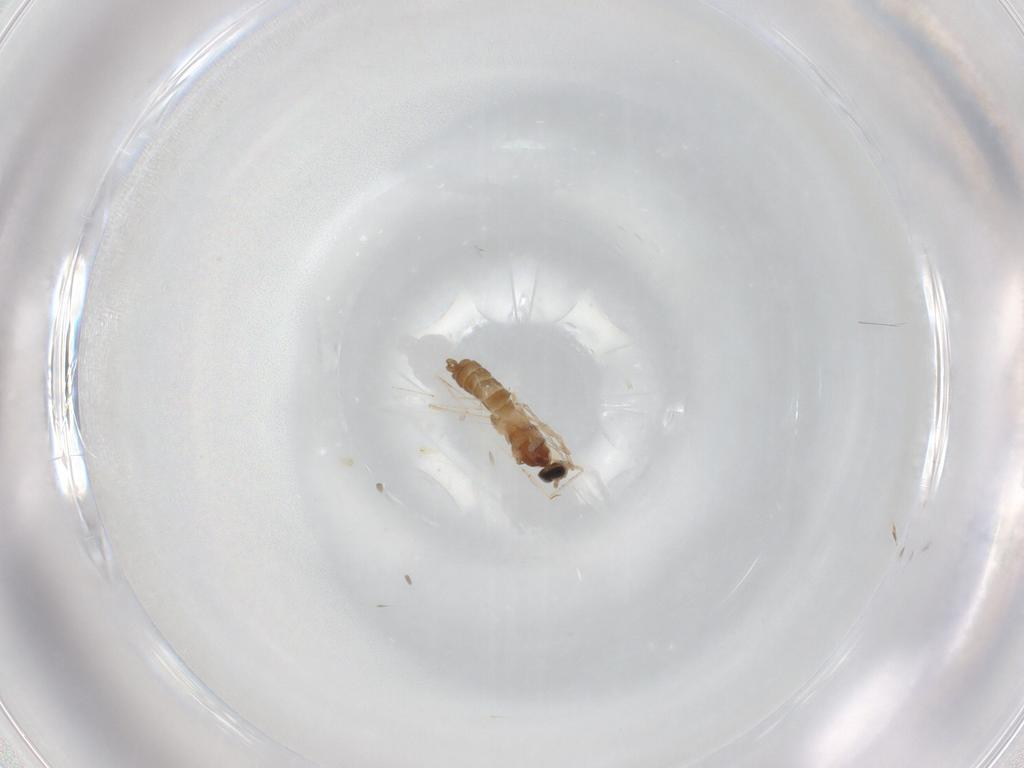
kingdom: Animalia
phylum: Arthropoda
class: Insecta
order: Diptera
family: Cecidomyiidae
